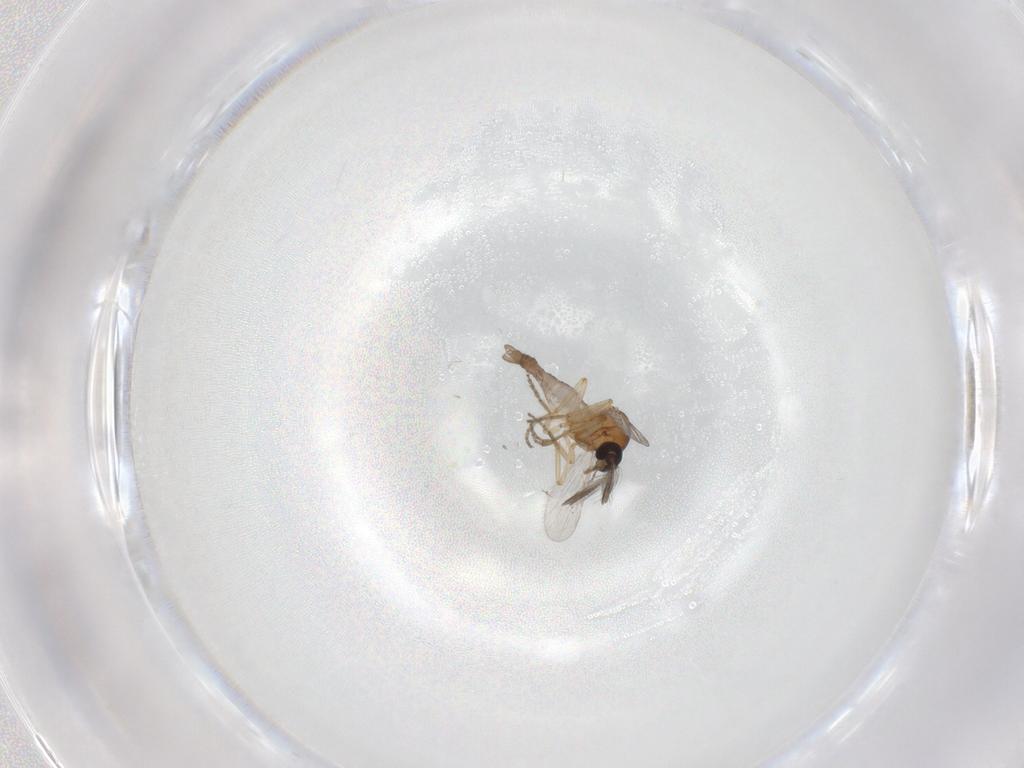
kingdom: Animalia
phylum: Arthropoda
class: Insecta
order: Diptera
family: Chironomidae
